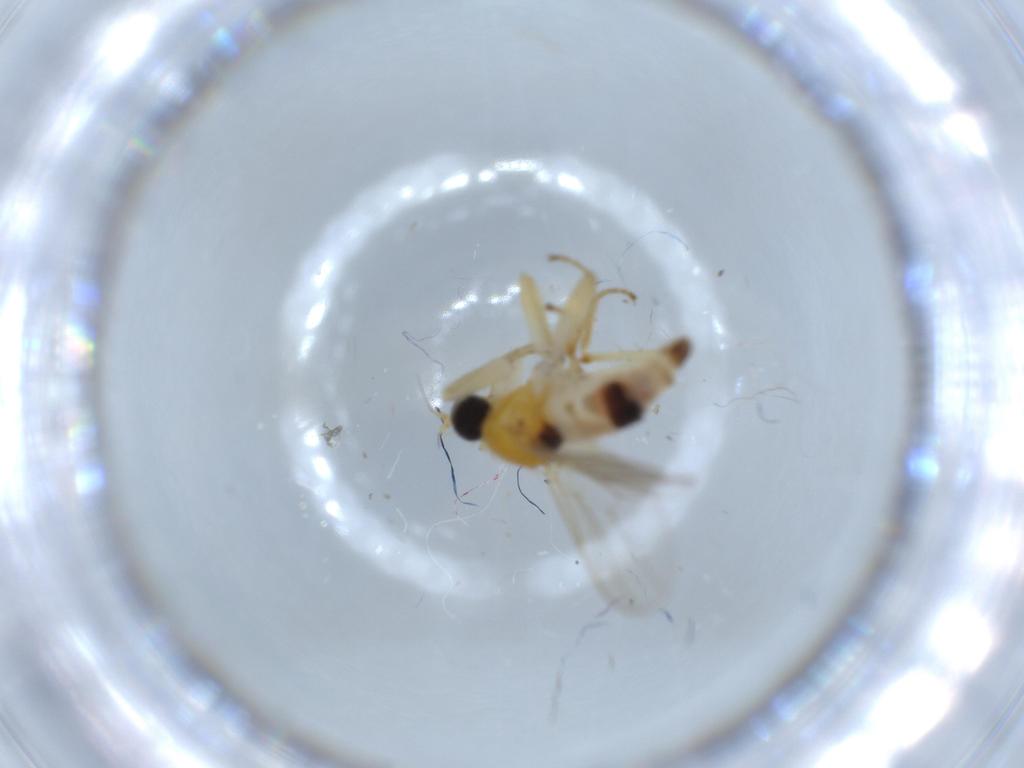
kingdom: Animalia
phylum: Arthropoda
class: Insecta
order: Diptera
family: Hybotidae
